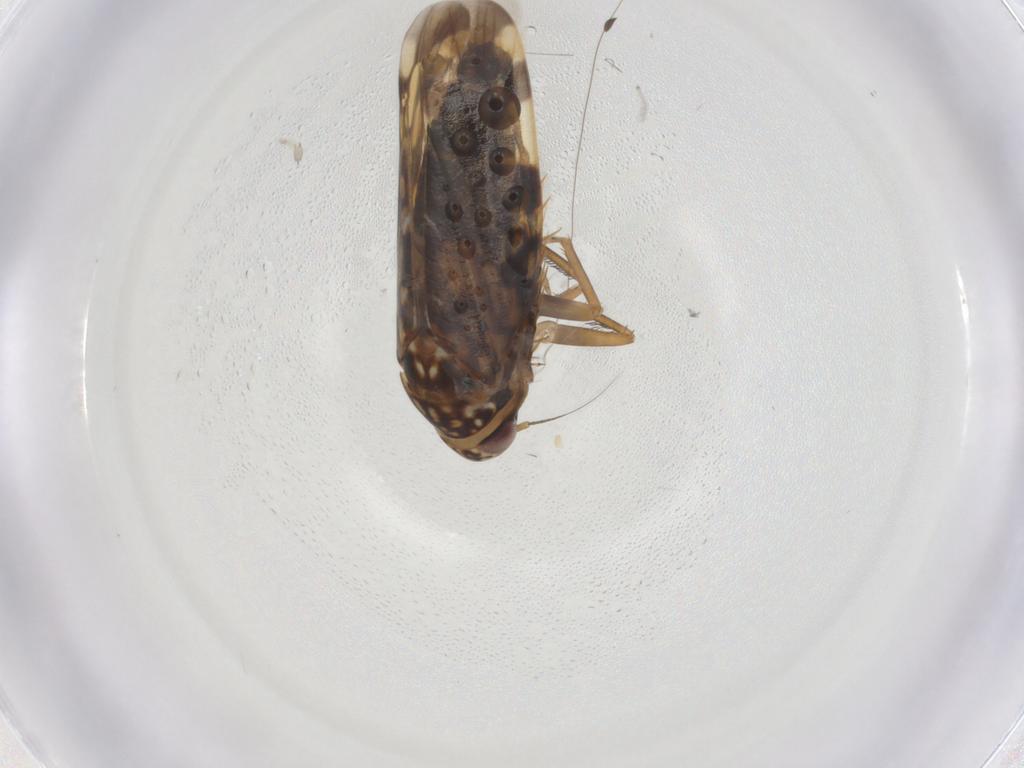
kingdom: Animalia
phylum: Arthropoda
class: Insecta
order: Hemiptera
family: Cicadellidae
